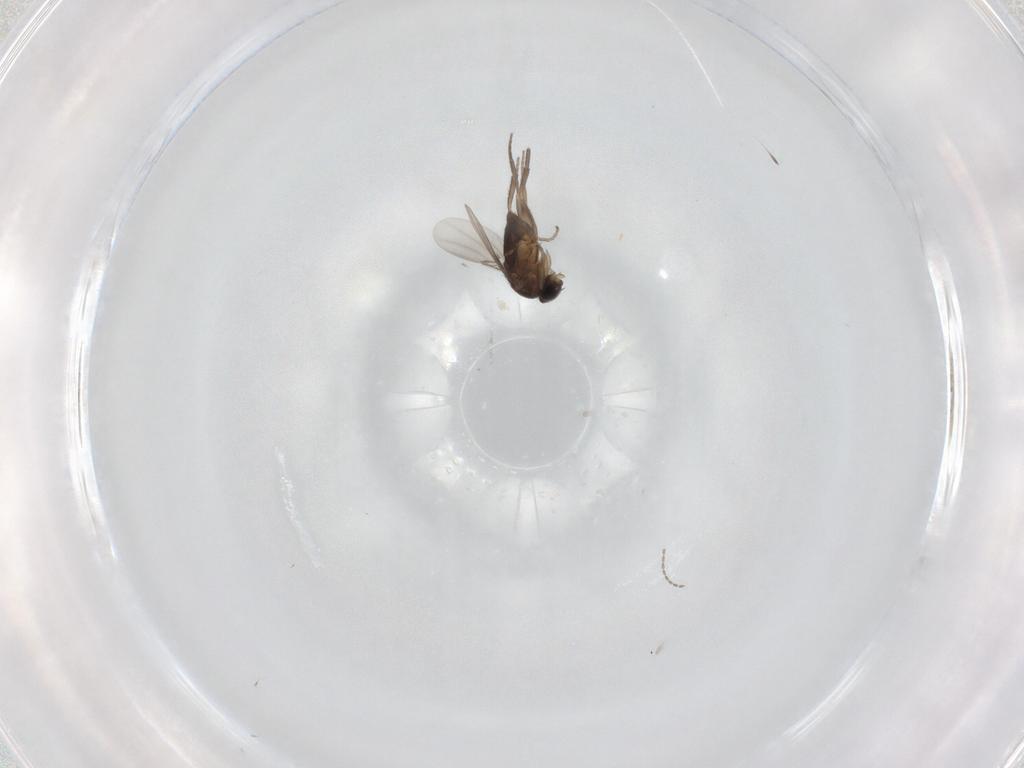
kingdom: Animalia
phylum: Arthropoda
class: Insecta
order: Diptera
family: Phoridae
